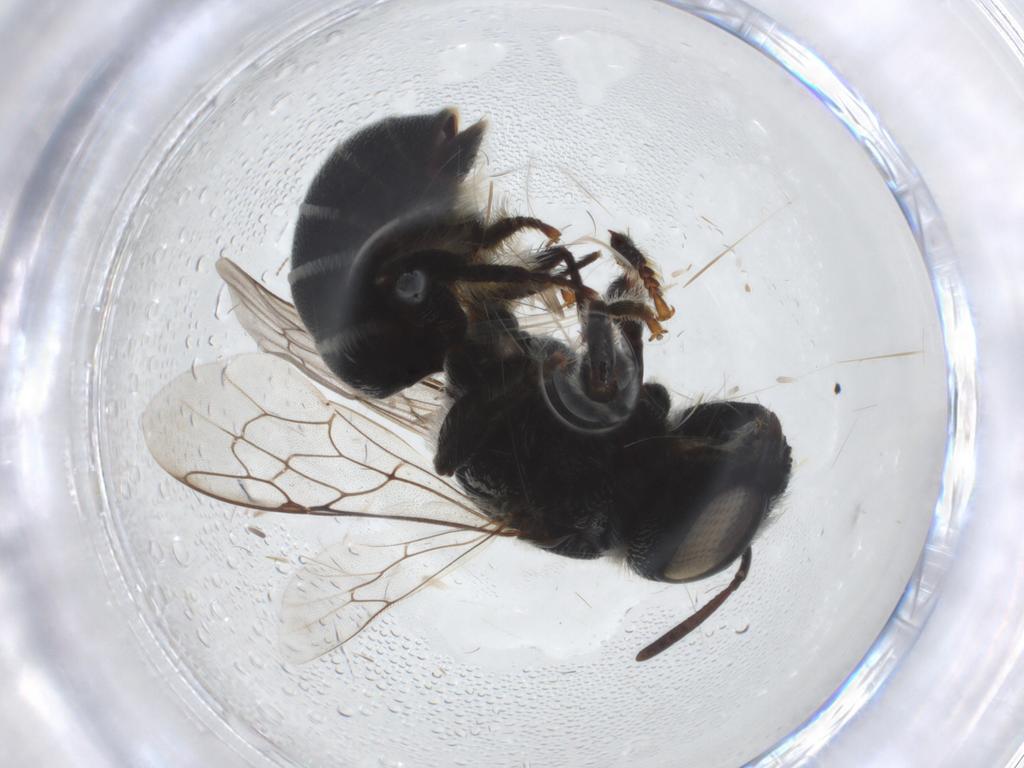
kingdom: Animalia
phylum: Arthropoda
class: Insecta
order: Hymenoptera
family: Megachilidae
